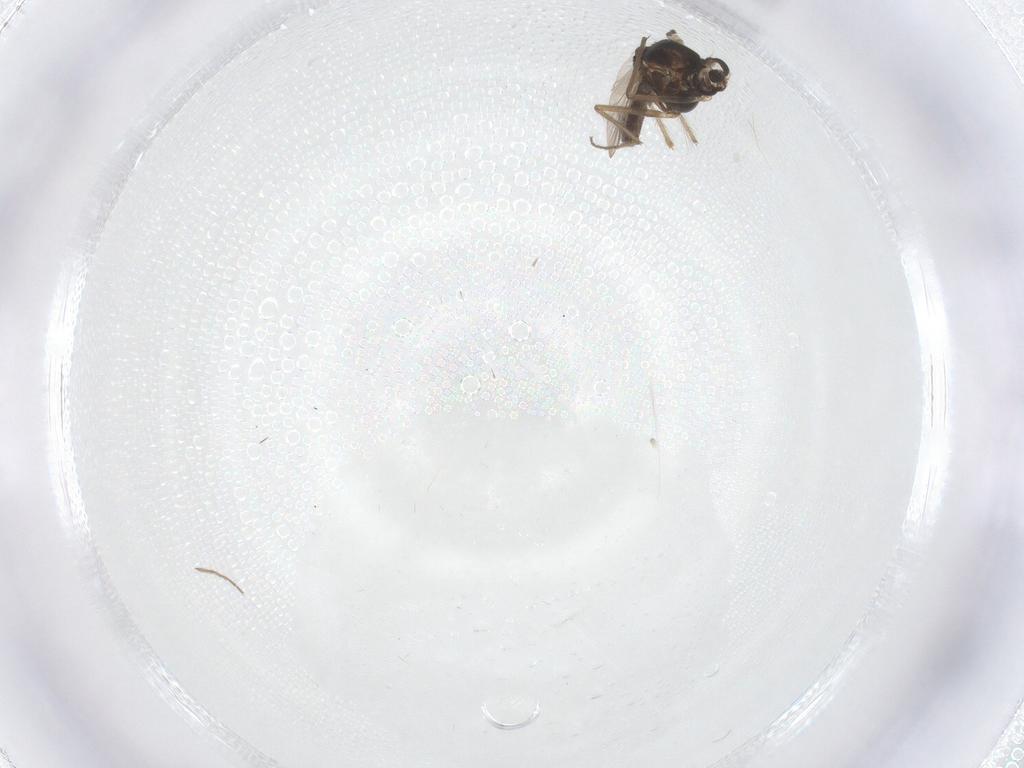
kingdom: Animalia
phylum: Arthropoda
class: Insecta
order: Diptera
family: Chironomidae
